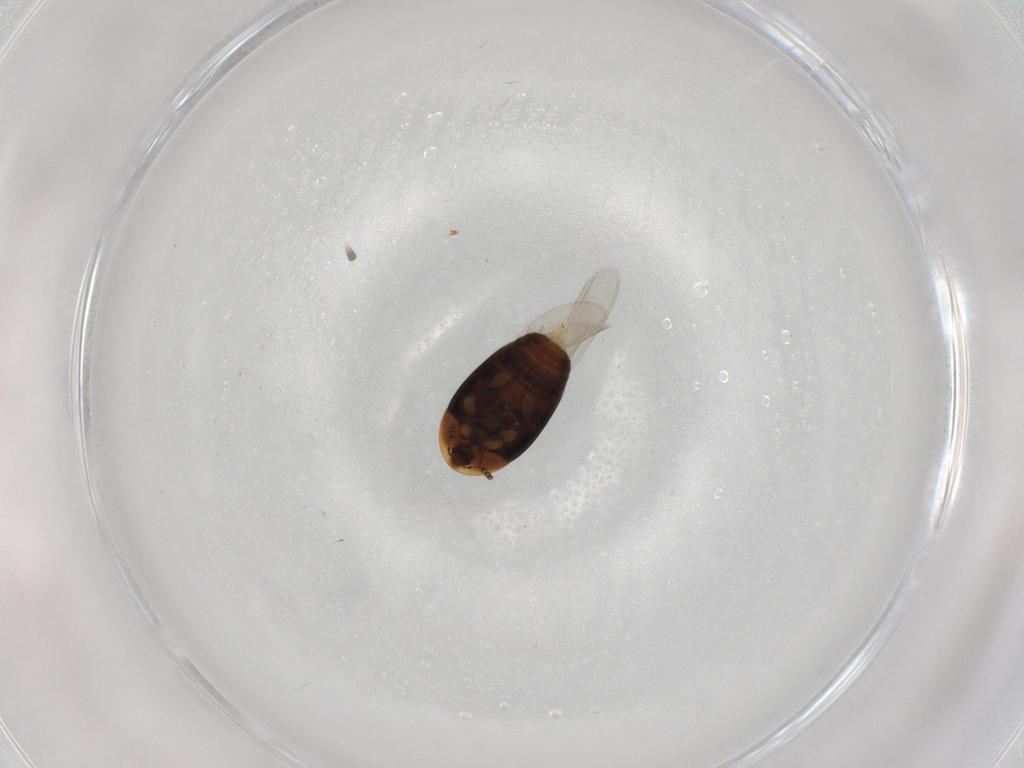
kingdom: Animalia
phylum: Arthropoda
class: Insecta
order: Coleoptera
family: Corylophidae
